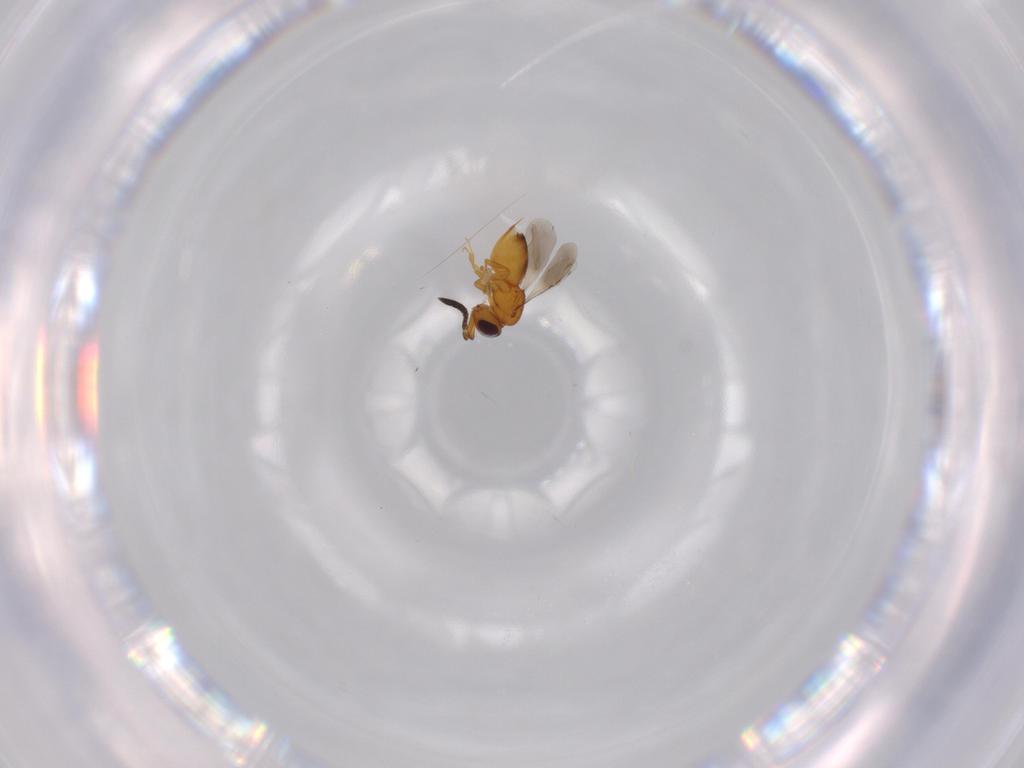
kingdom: Animalia
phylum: Arthropoda
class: Insecta
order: Hymenoptera
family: Ceraphronidae
